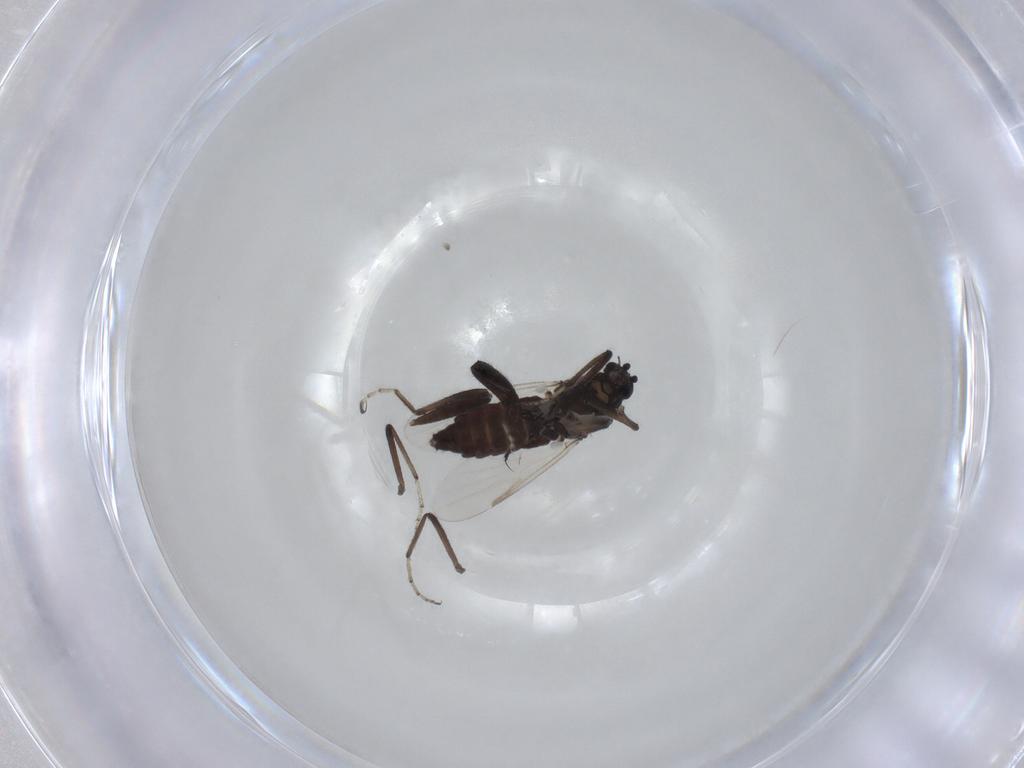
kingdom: Animalia
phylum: Arthropoda
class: Insecta
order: Diptera
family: Ceratopogonidae
